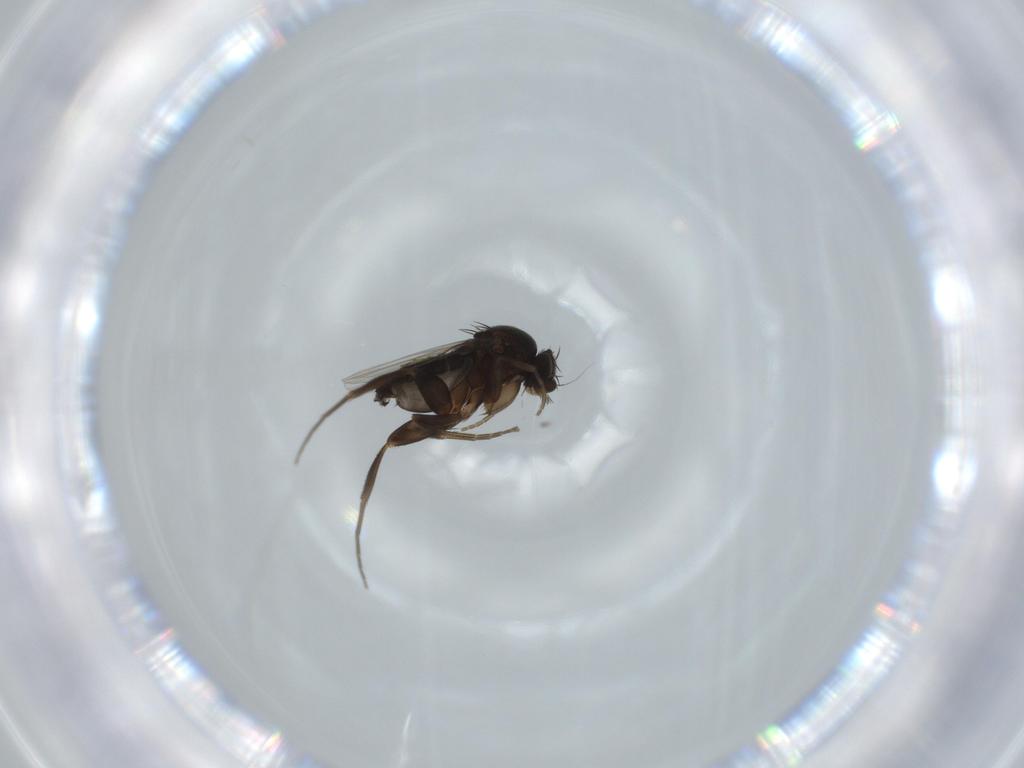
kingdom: Animalia
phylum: Arthropoda
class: Insecta
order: Diptera
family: Phoridae
